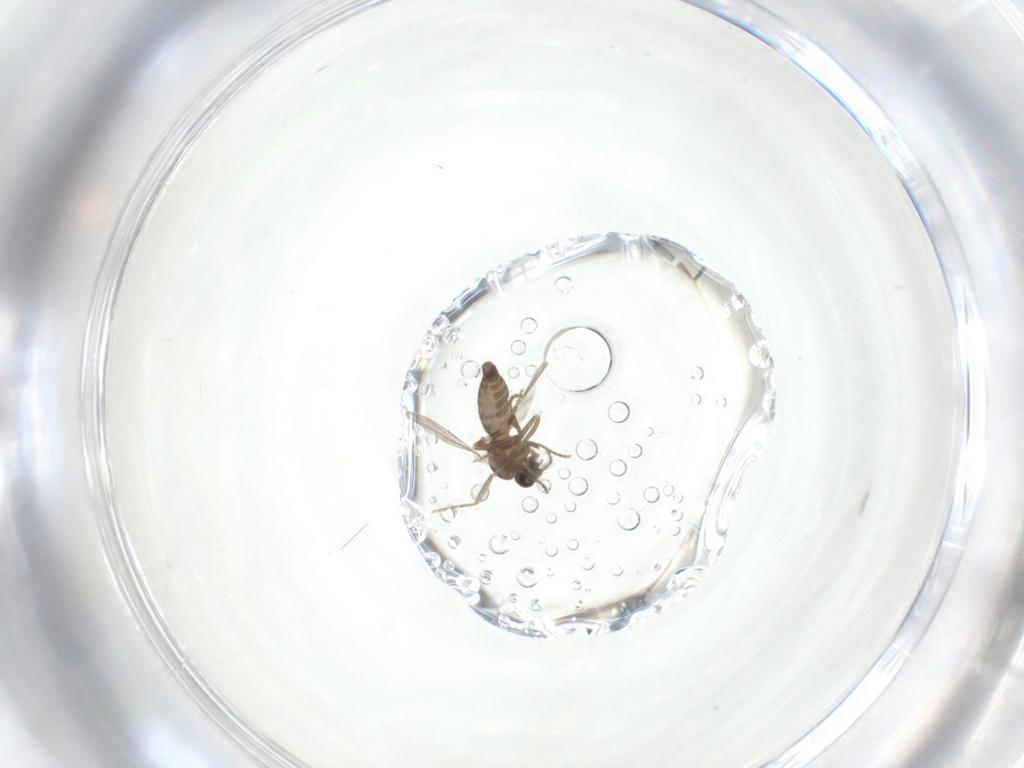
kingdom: Animalia
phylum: Arthropoda
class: Insecta
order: Diptera
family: Ceratopogonidae
